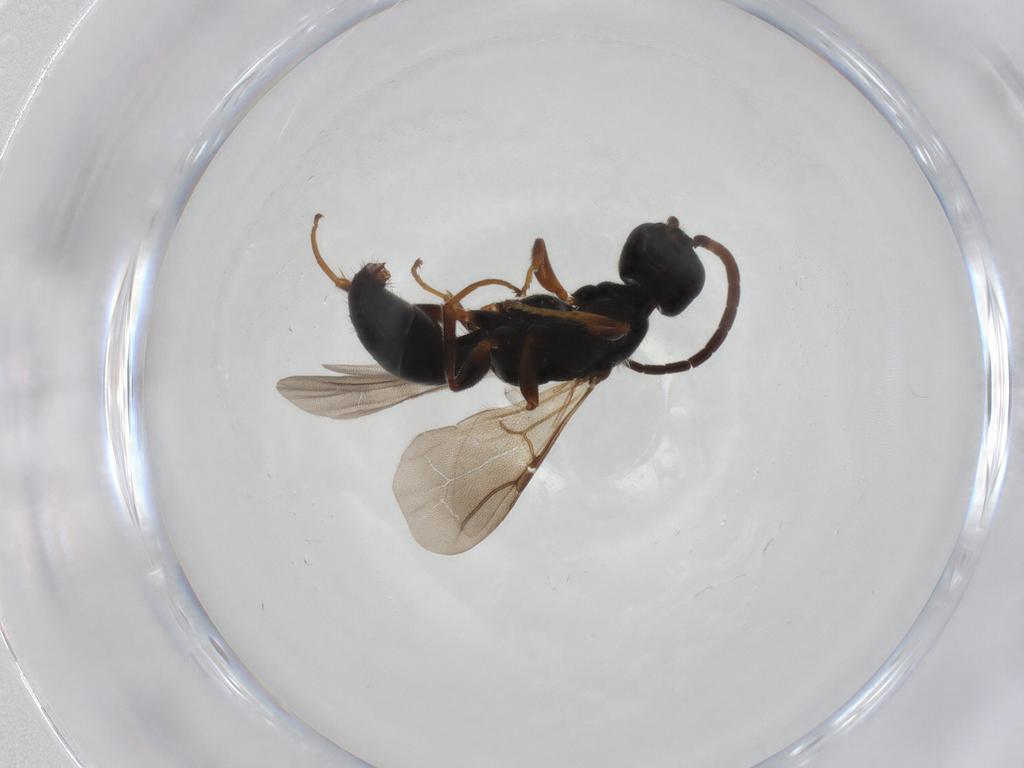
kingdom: Animalia
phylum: Arthropoda
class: Insecta
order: Hymenoptera
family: Bethylidae
